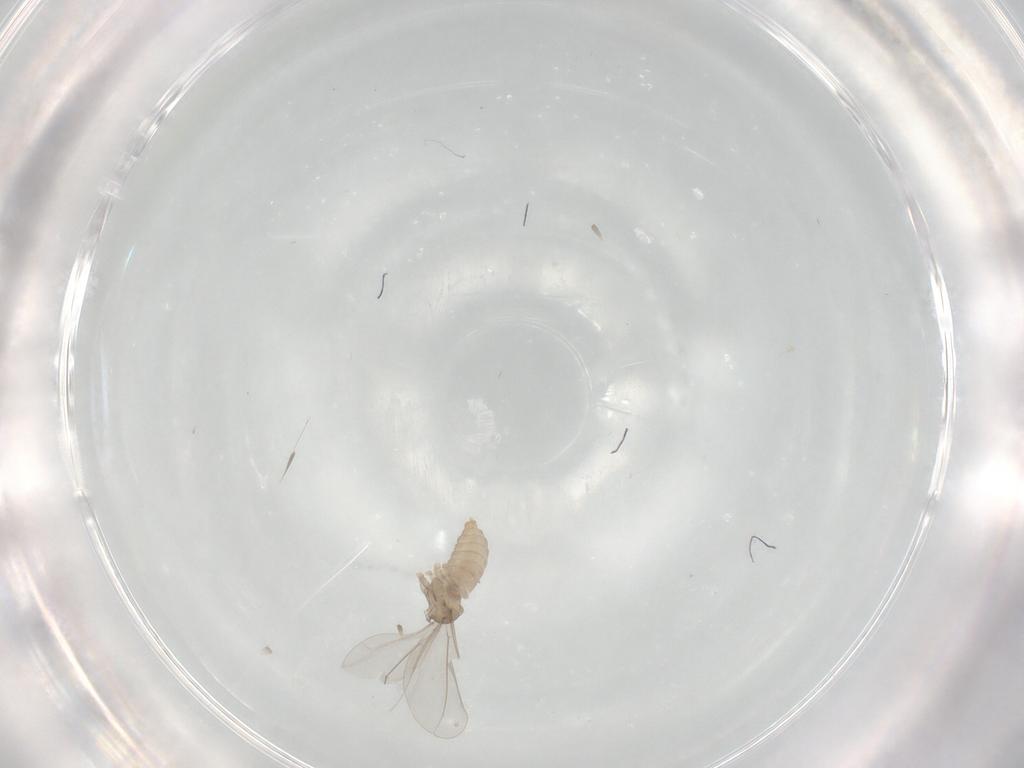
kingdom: Animalia
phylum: Arthropoda
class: Insecta
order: Diptera
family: Cecidomyiidae
